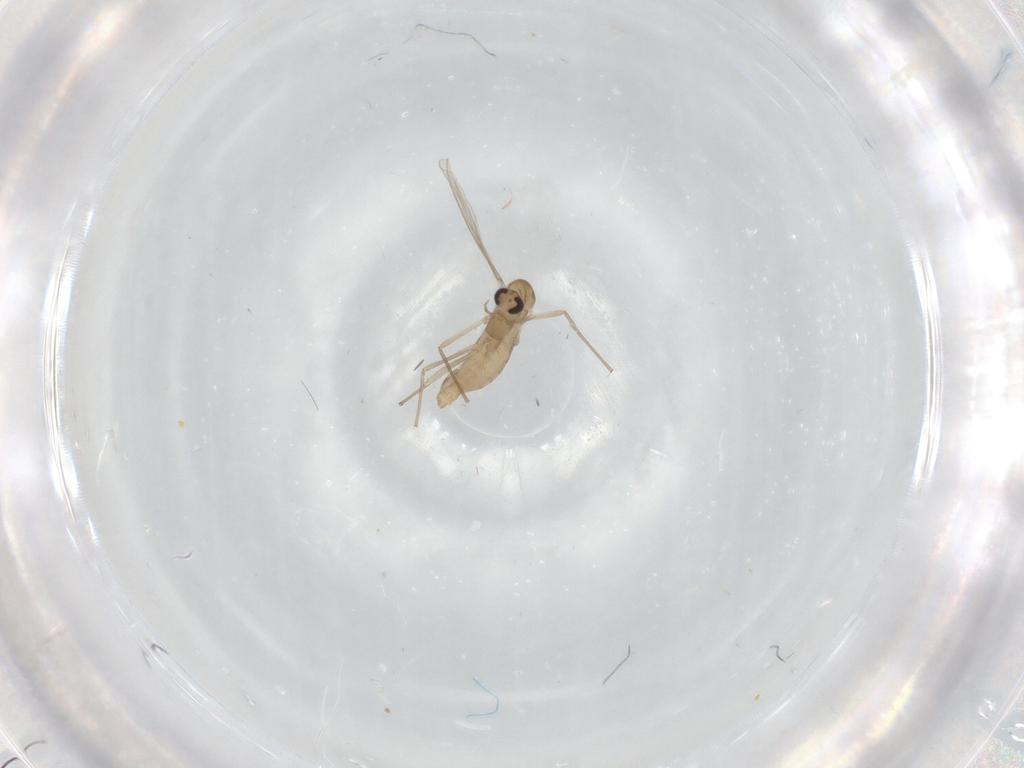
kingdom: Animalia
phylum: Arthropoda
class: Insecta
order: Diptera
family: Chironomidae
